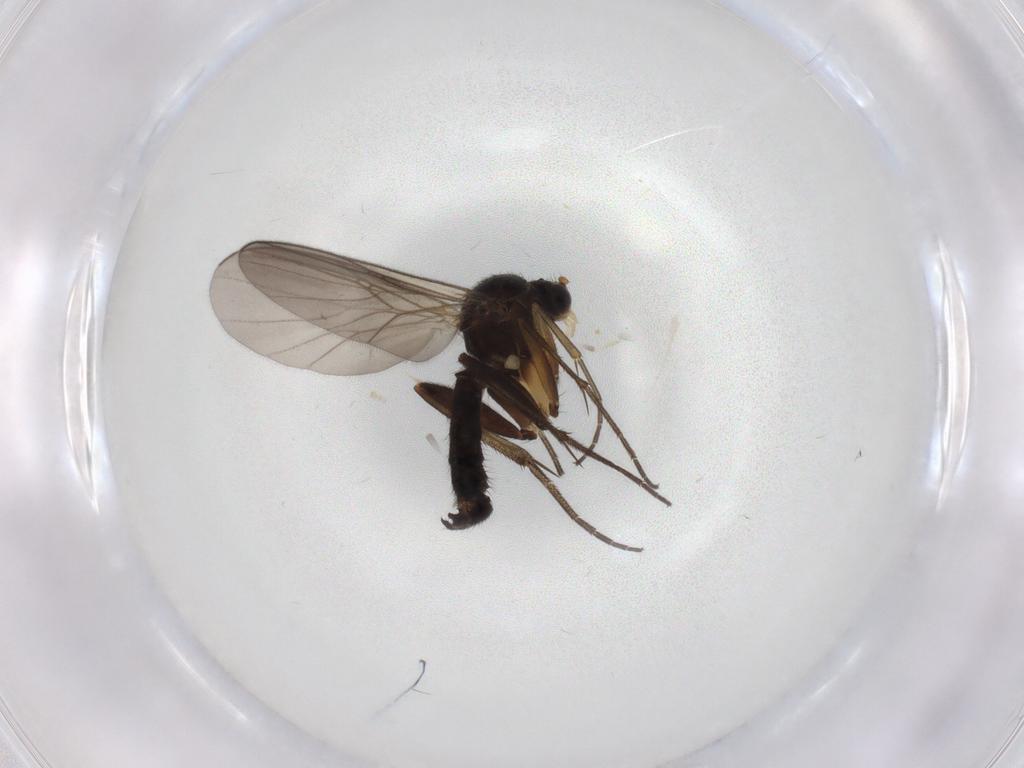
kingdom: Animalia
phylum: Arthropoda
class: Insecta
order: Diptera
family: Mycetophilidae
